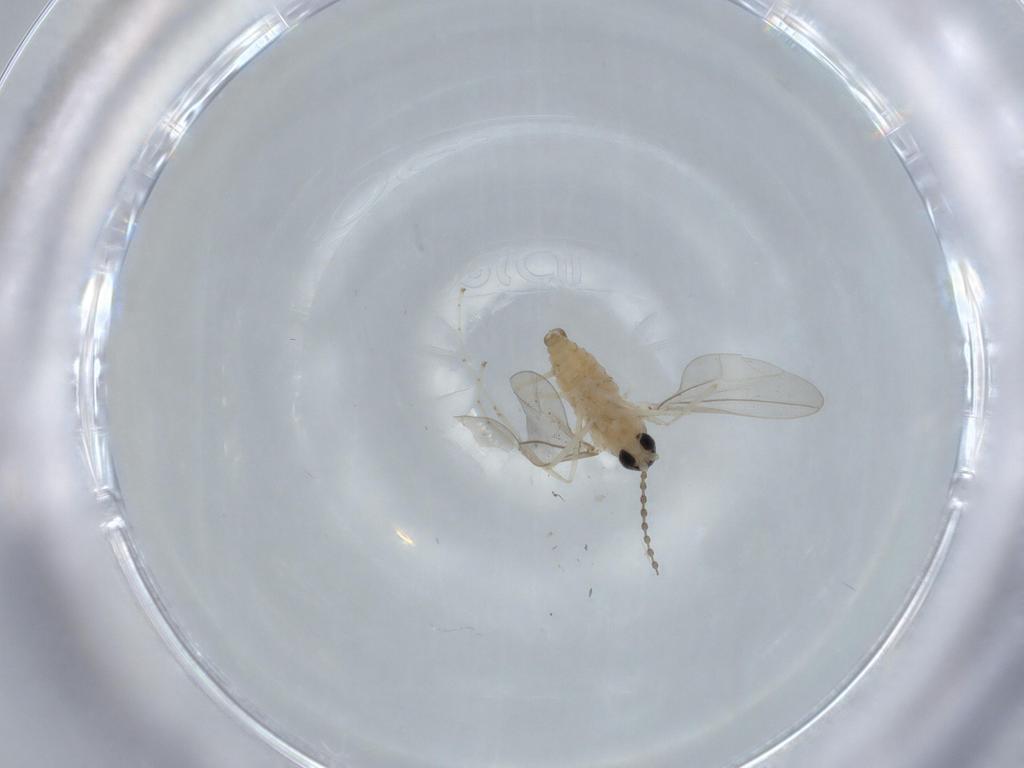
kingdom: Animalia
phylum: Arthropoda
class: Insecta
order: Diptera
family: Cecidomyiidae
